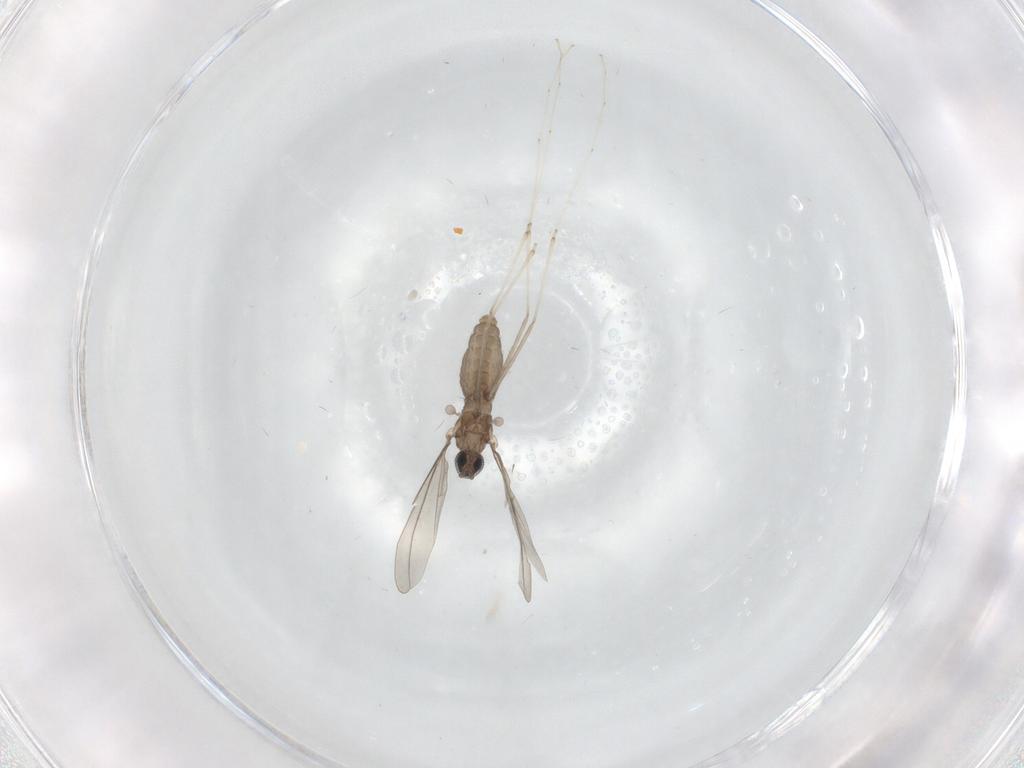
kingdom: Animalia
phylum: Arthropoda
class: Insecta
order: Diptera
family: Cecidomyiidae
